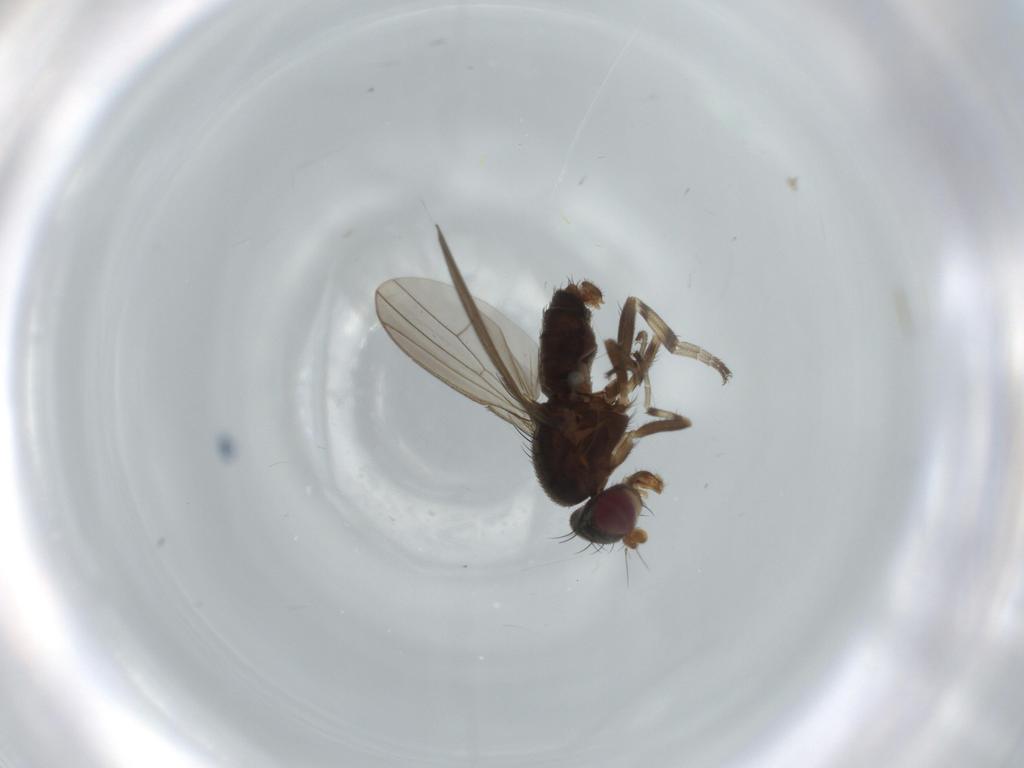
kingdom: Animalia
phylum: Arthropoda
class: Insecta
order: Diptera
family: Heleomyzidae
